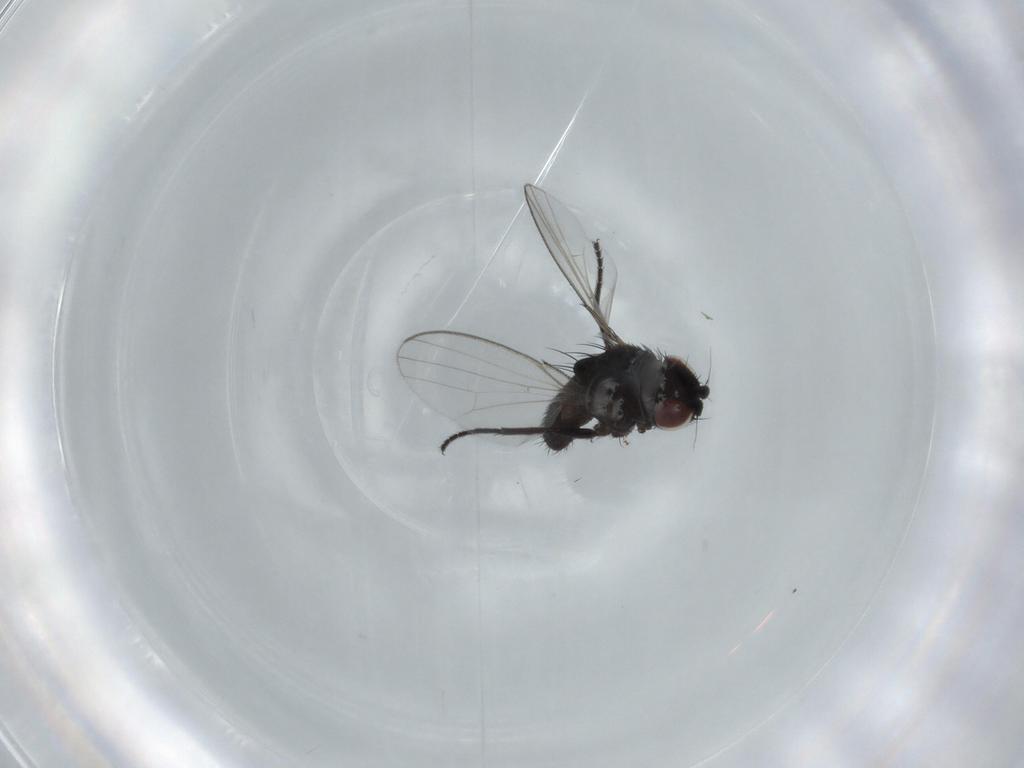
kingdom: Animalia
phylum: Arthropoda
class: Insecta
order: Diptera
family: Milichiidae
